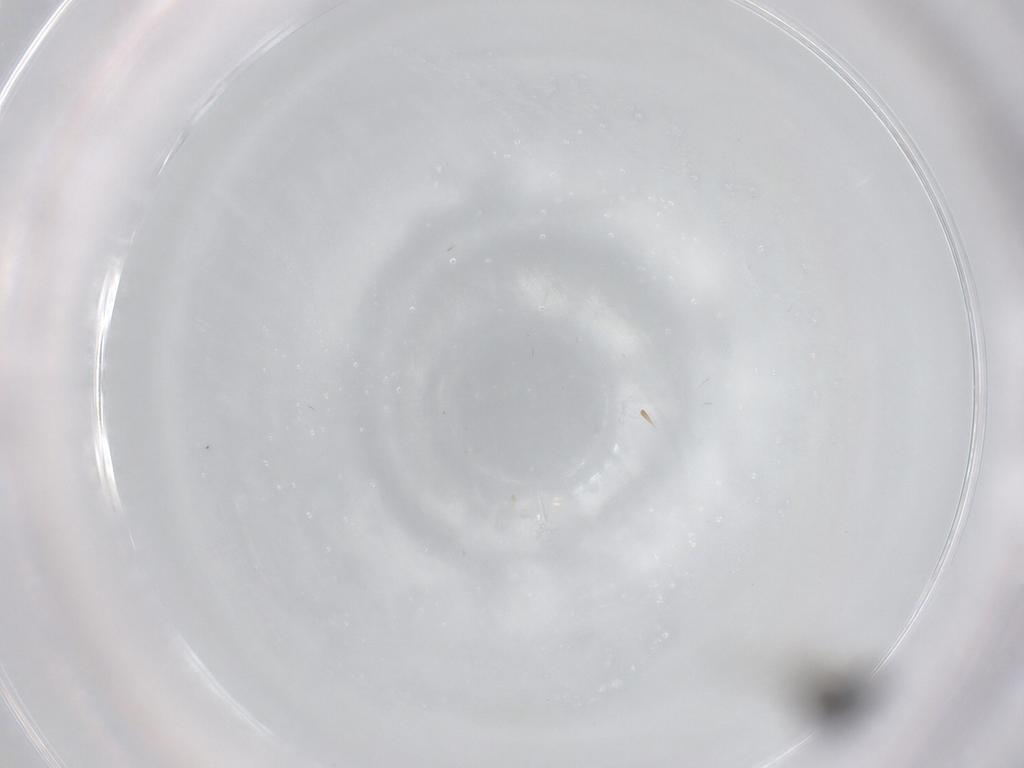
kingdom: Animalia
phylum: Arthropoda
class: Insecta
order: Diptera
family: Phoridae
